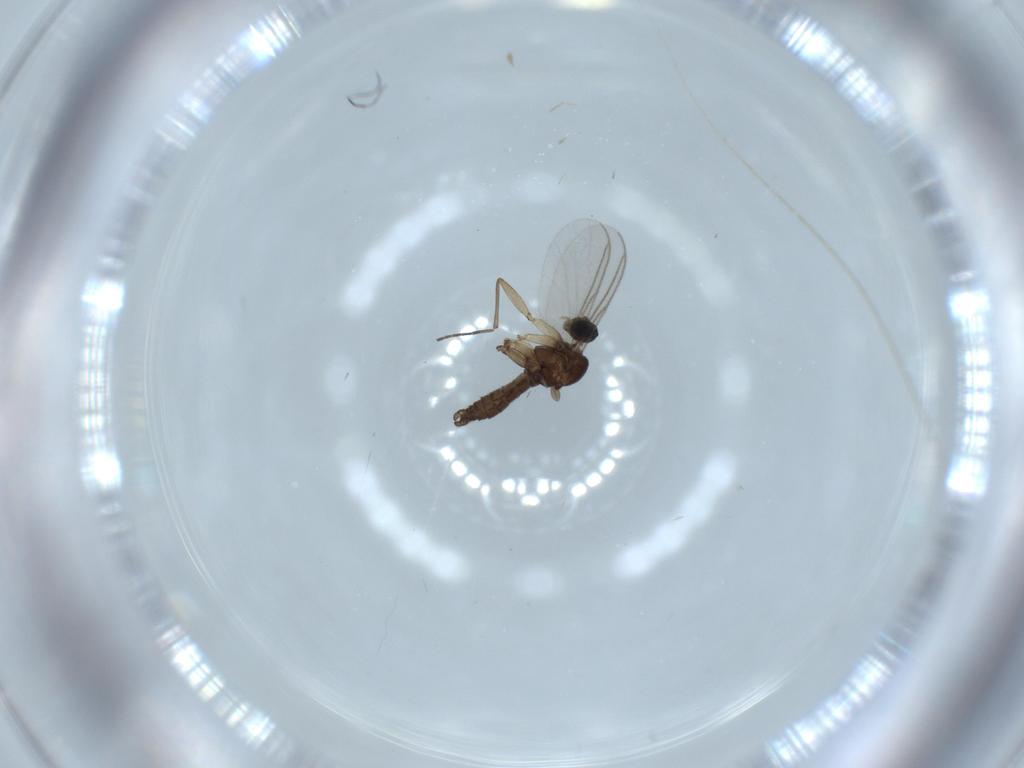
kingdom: Animalia
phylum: Arthropoda
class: Insecta
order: Diptera
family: Sciaridae
